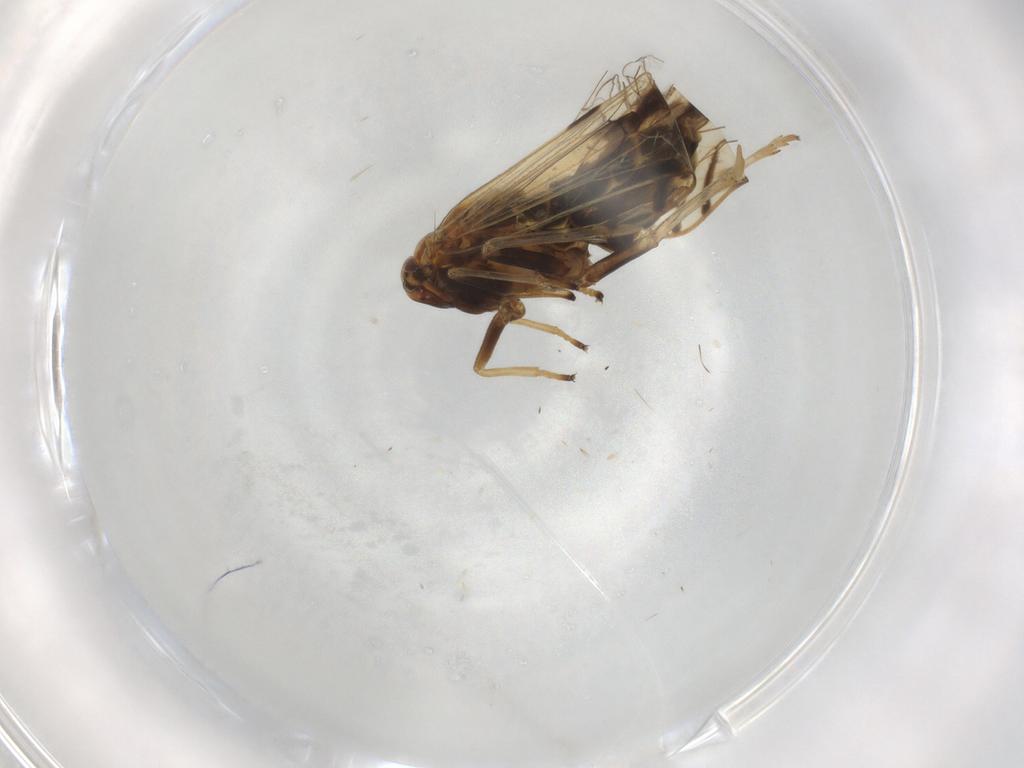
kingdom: Animalia
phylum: Arthropoda
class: Insecta
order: Hemiptera
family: Delphacidae
